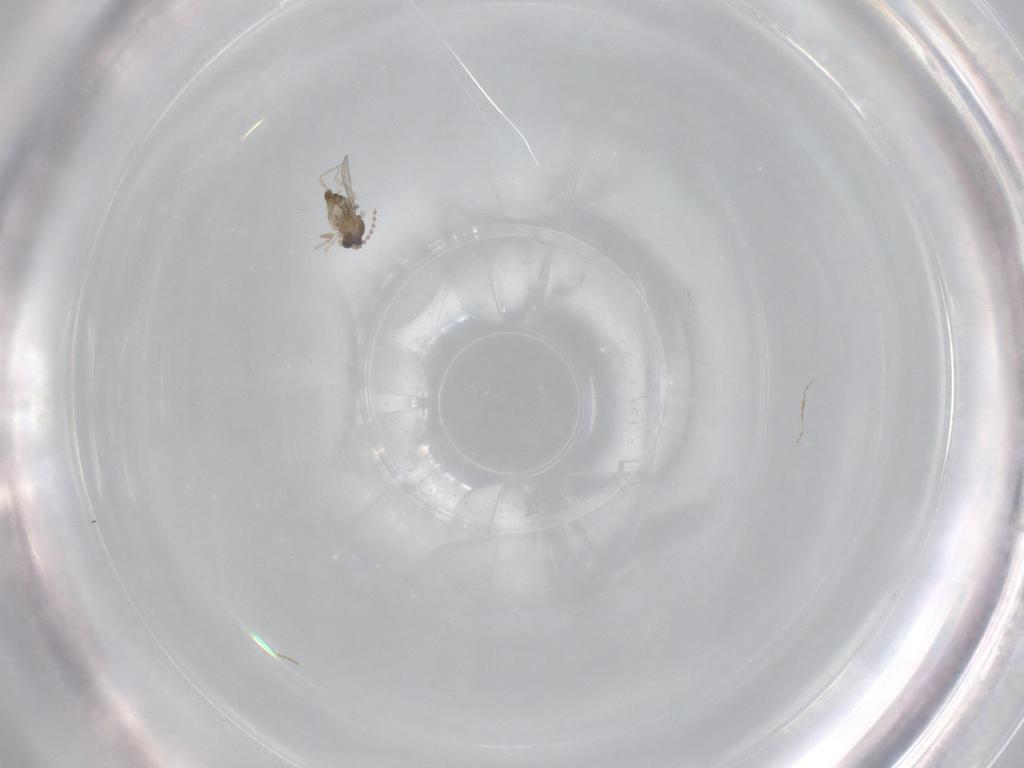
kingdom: Animalia
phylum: Arthropoda
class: Insecta
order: Diptera
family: Cecidomyiidae
